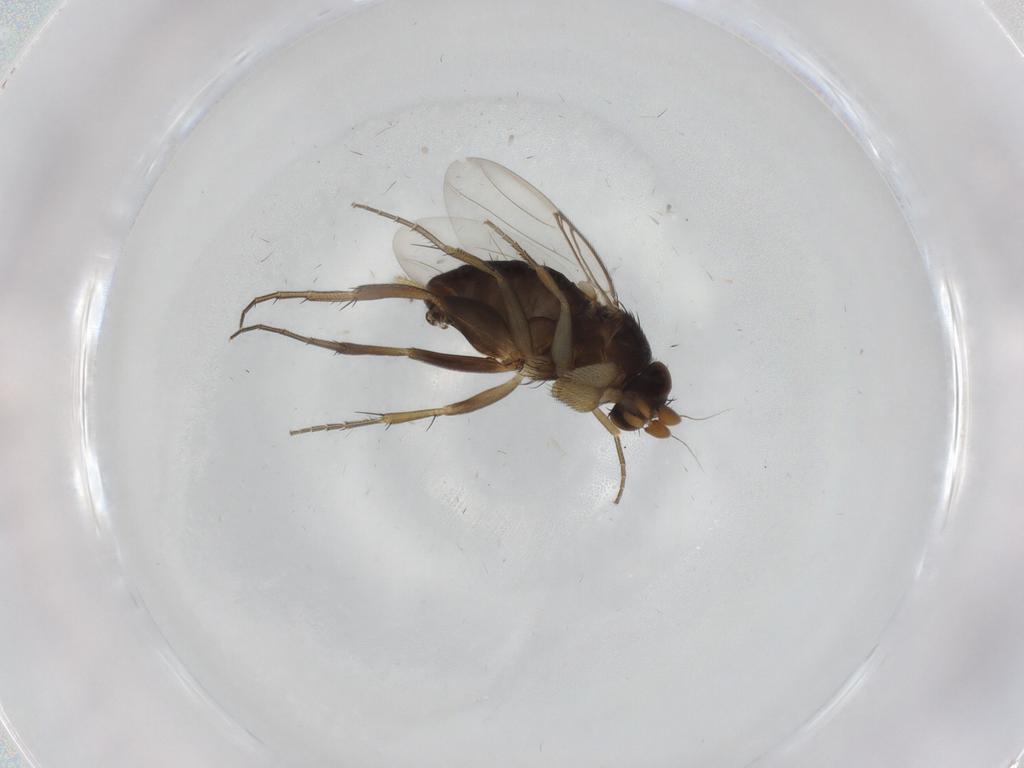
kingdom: Animalia
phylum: Arthropoda
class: Insecta
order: Diptera
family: Phoridae
